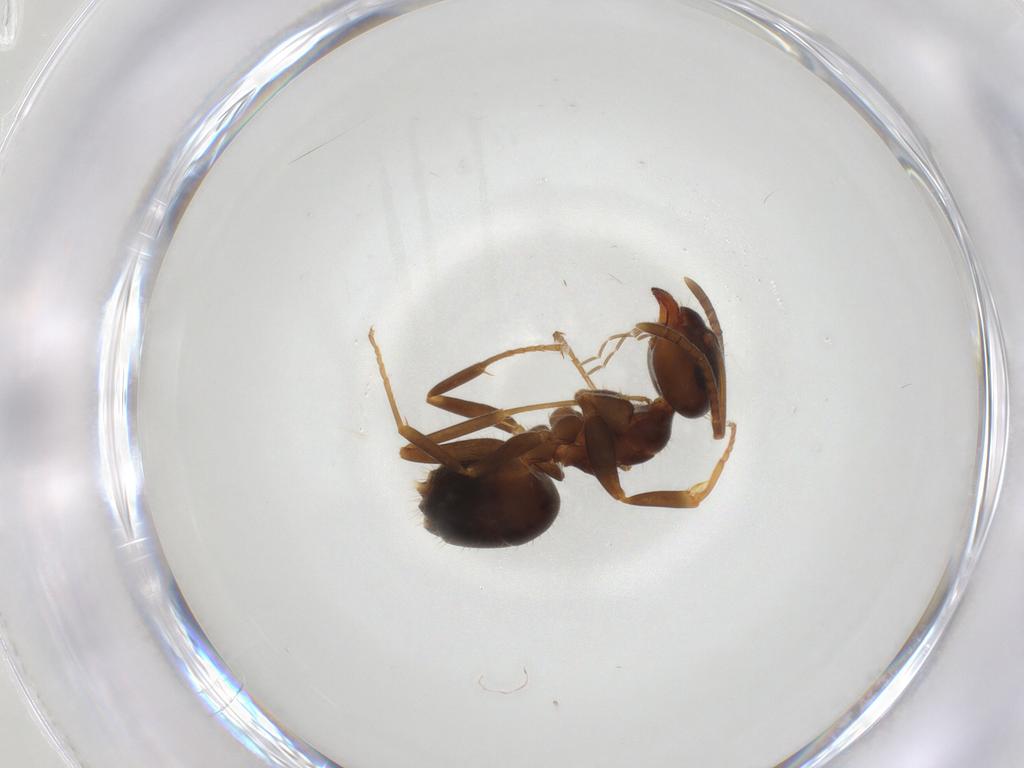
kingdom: Animalia
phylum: Arthropoda
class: Insecta
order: Hymenoptera
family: Formicidae
